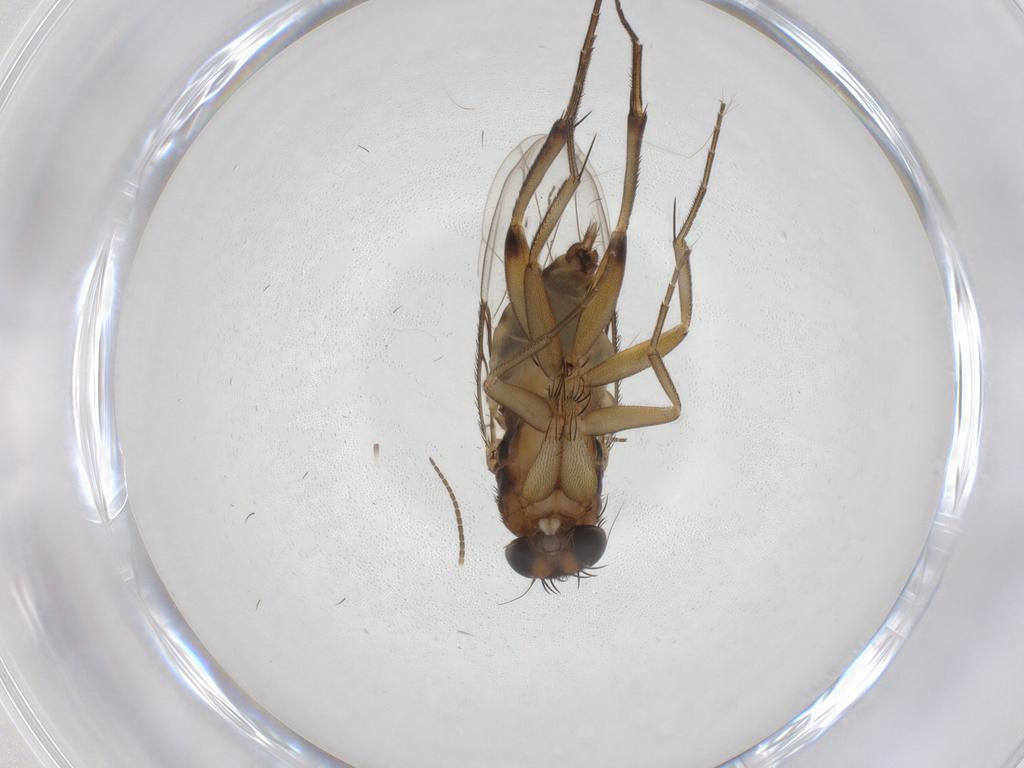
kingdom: Animalia
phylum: Arthropoda
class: Insecta
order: Diptera
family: Phoridae
